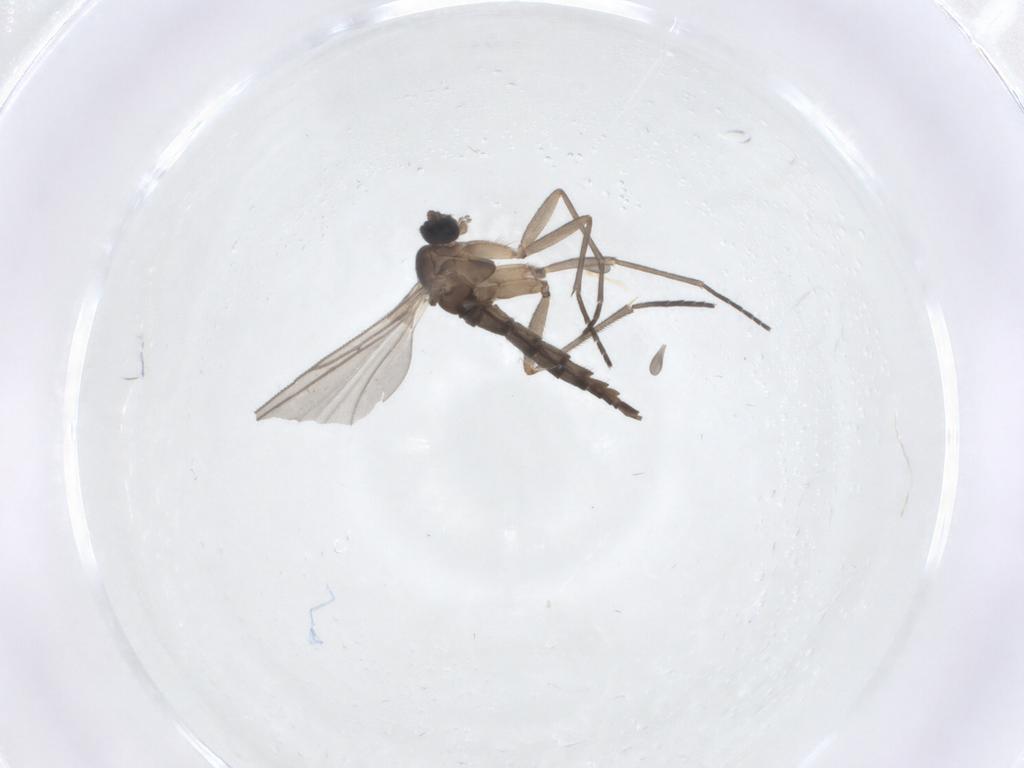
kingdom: Animalia
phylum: Arthropoda
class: Insecta
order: Diptera
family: Sciaridae
